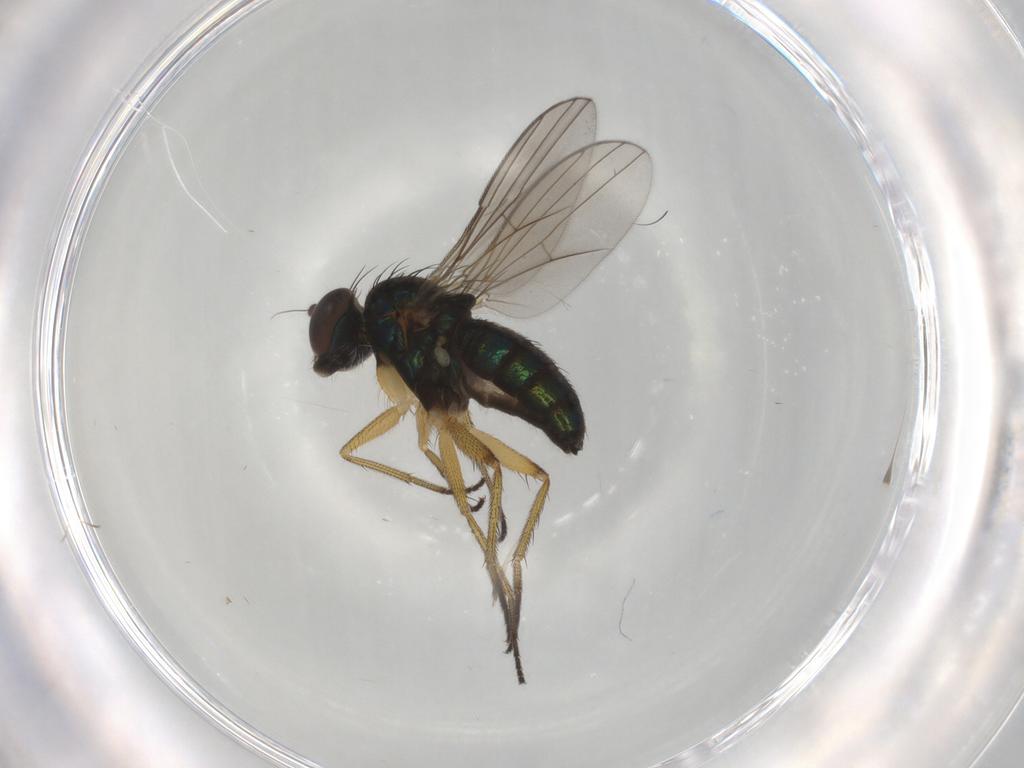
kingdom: Animalia
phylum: Arthropoda
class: Insecta
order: Diptera
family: Dolichopodidae
